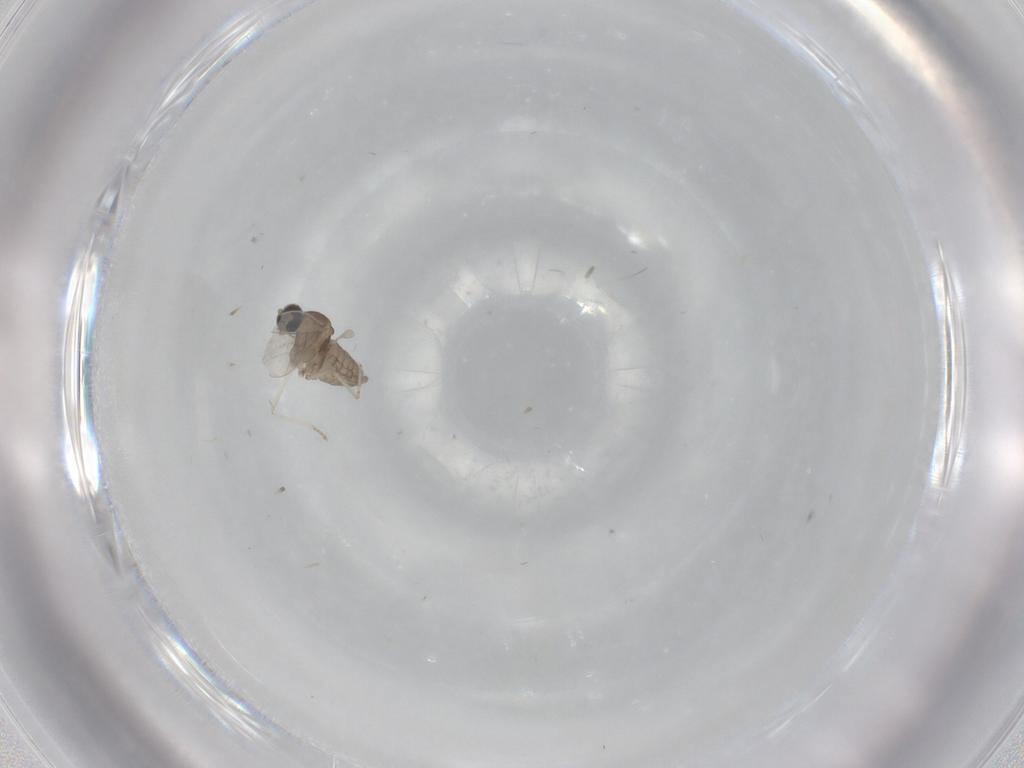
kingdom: Animalia
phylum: Arthropoda
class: Insecta
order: Diptera
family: Cecidomyiidae
